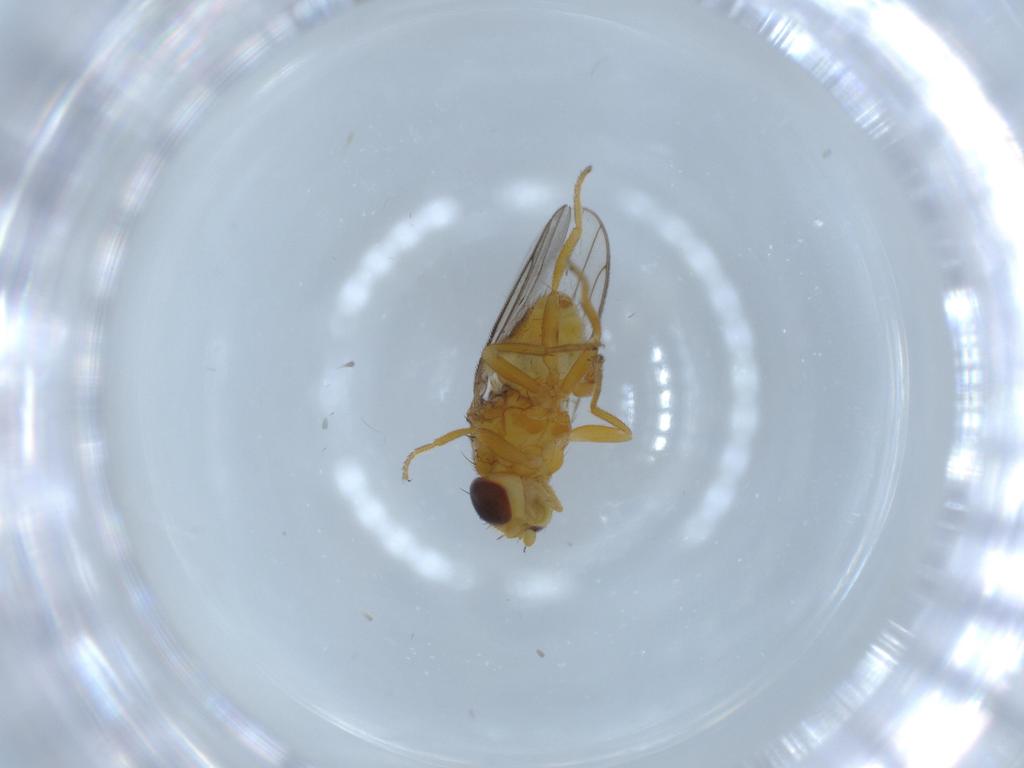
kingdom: Animalia
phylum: Arthropoda
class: Insecta
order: Diptera
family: Chloropidae
